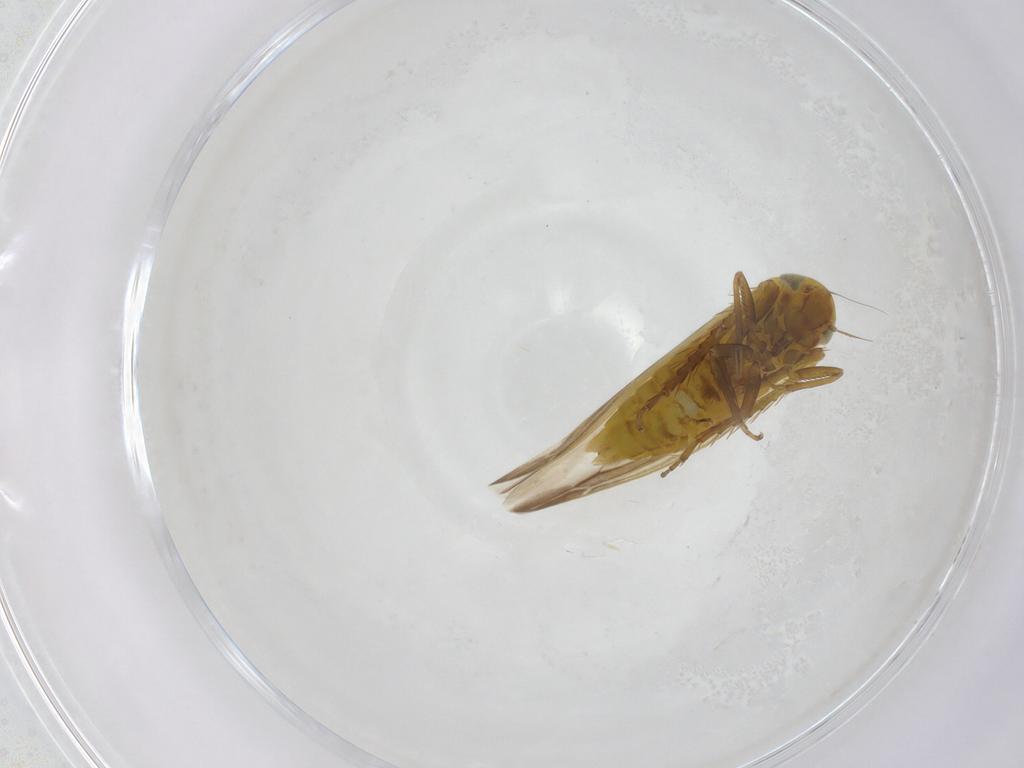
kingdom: Animalia
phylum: Arthropoda
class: Insecta
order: Hemiptera
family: Cicadellidae
